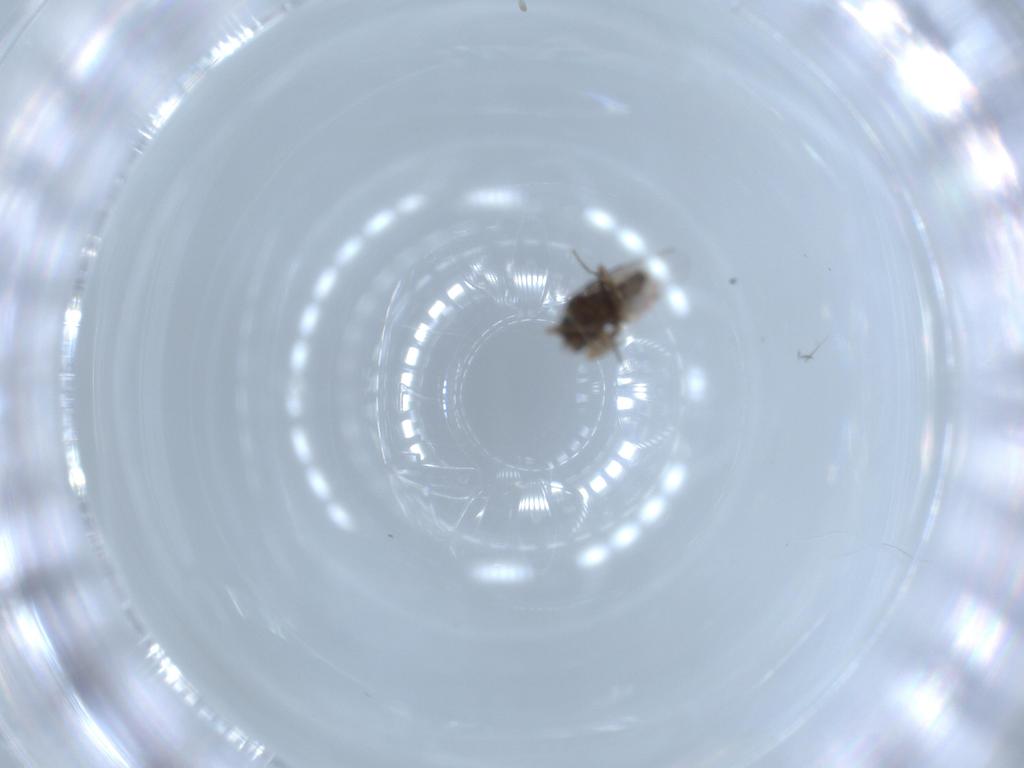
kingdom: Animalia
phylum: Arthropoda
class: Insecta
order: Diptera
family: Phoridae
